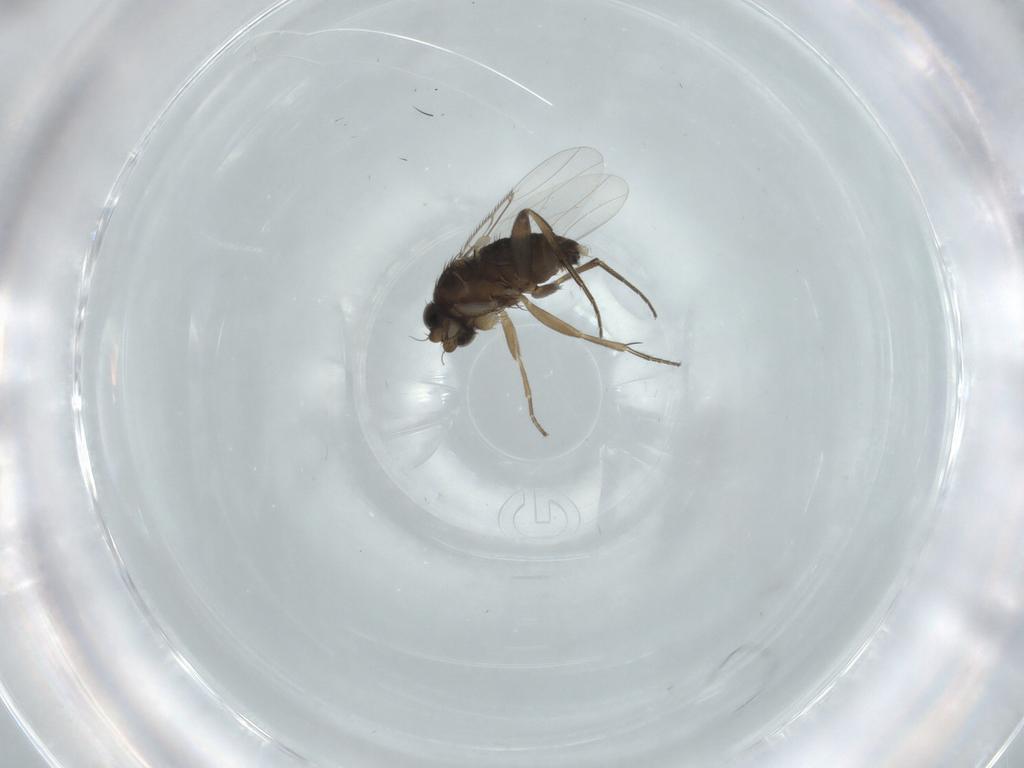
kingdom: Animalia
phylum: Arthropoda
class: Insecta
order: Diptera
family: Phoridae
